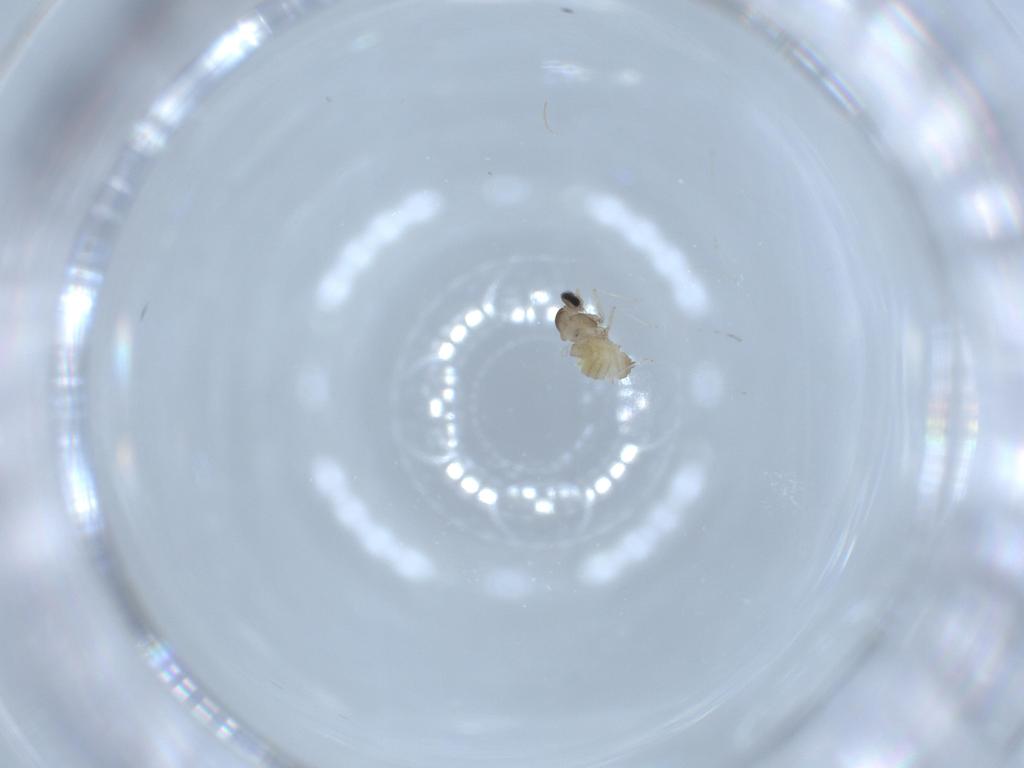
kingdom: Animalia
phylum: Arthropoda
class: Insecta
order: Diptera
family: Cecidomyiidae
